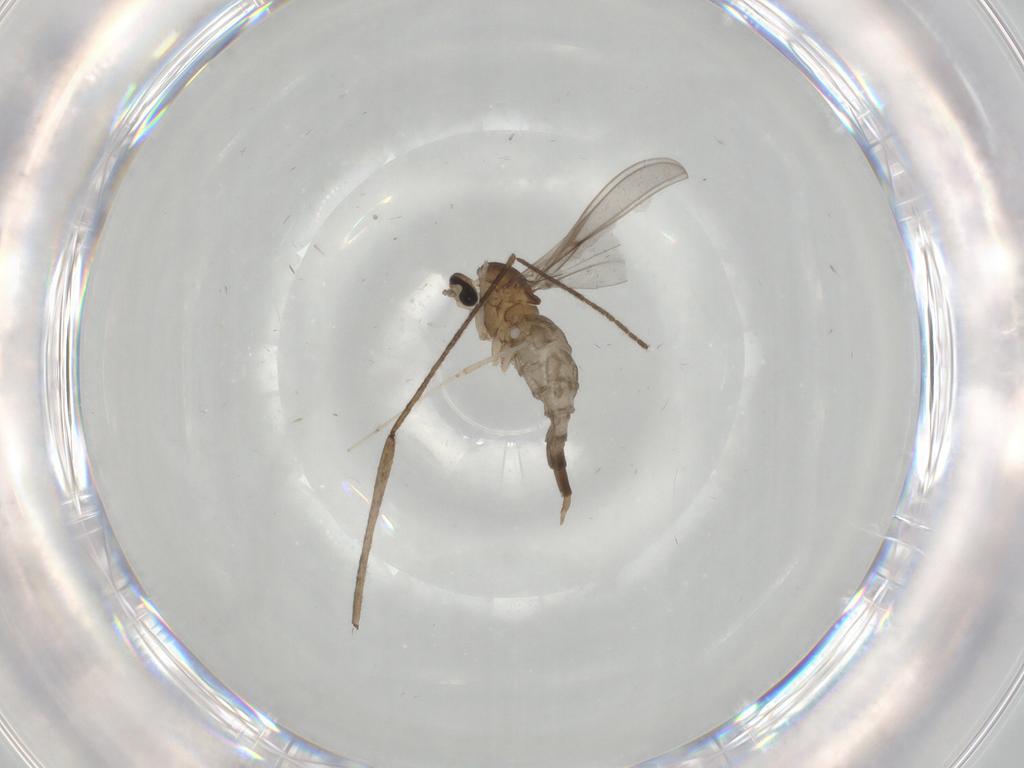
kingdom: Animalia
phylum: Arthropoda
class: Insecta
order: Diptera
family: Cecidomyiidae
